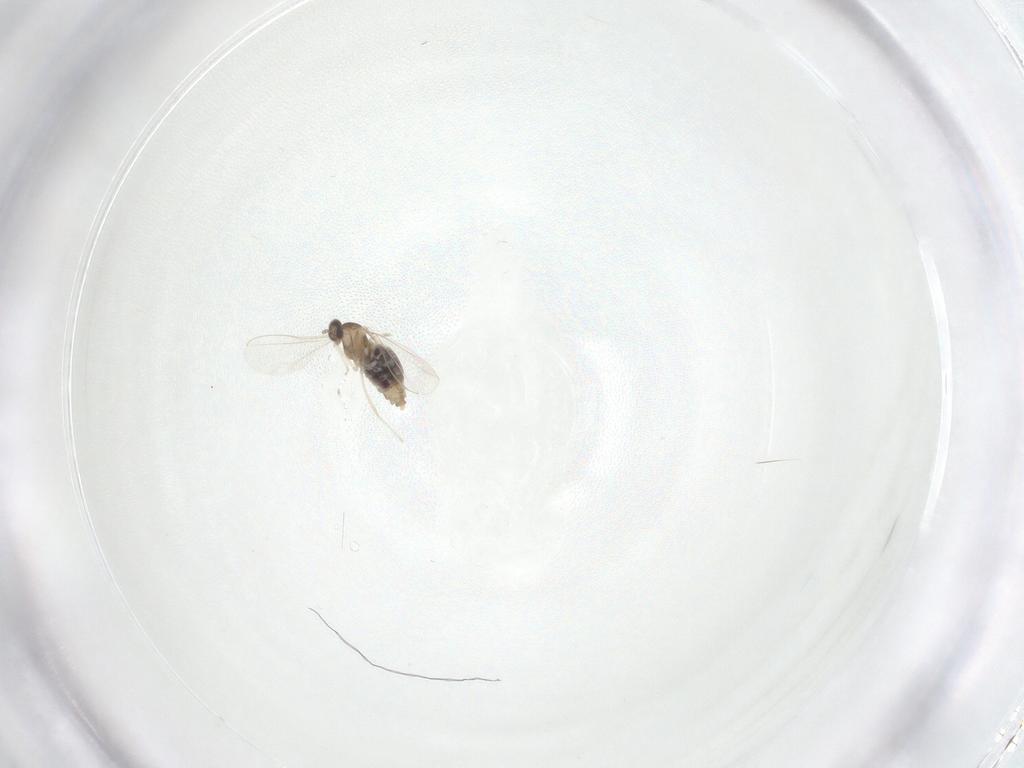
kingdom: Animalia
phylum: Arthropoda
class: Insecta
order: Diptera
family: Cecidomyiidae
